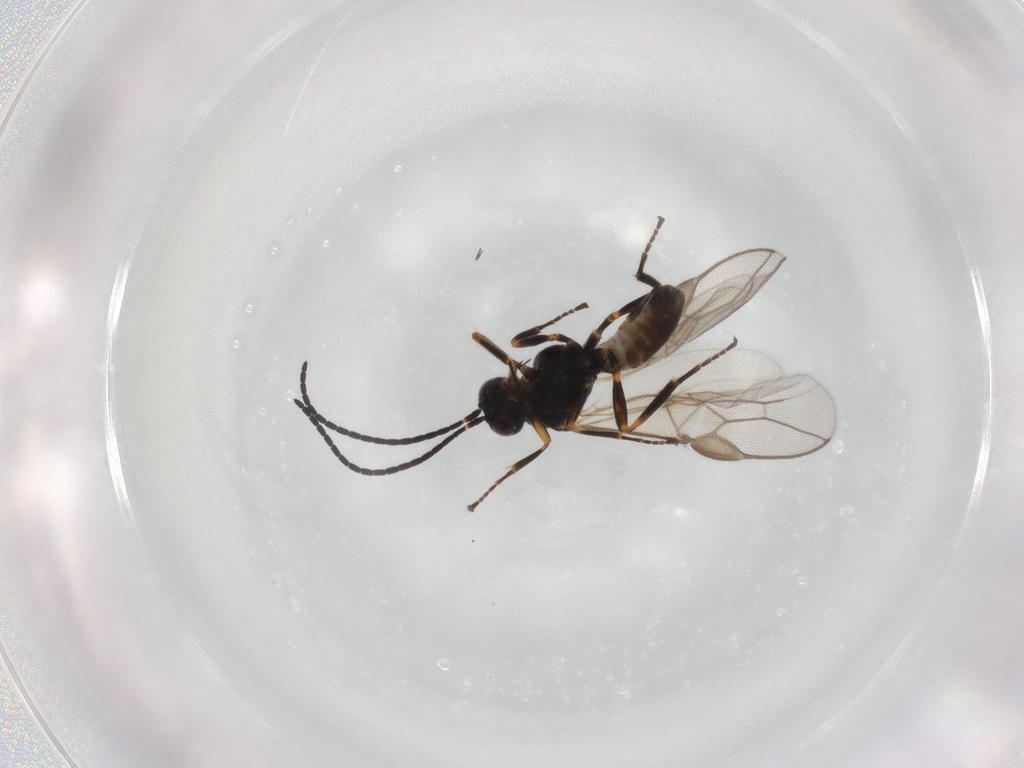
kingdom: Animalia
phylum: Arthropoda
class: Insecta
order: Hymenoptera
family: Braconidae
